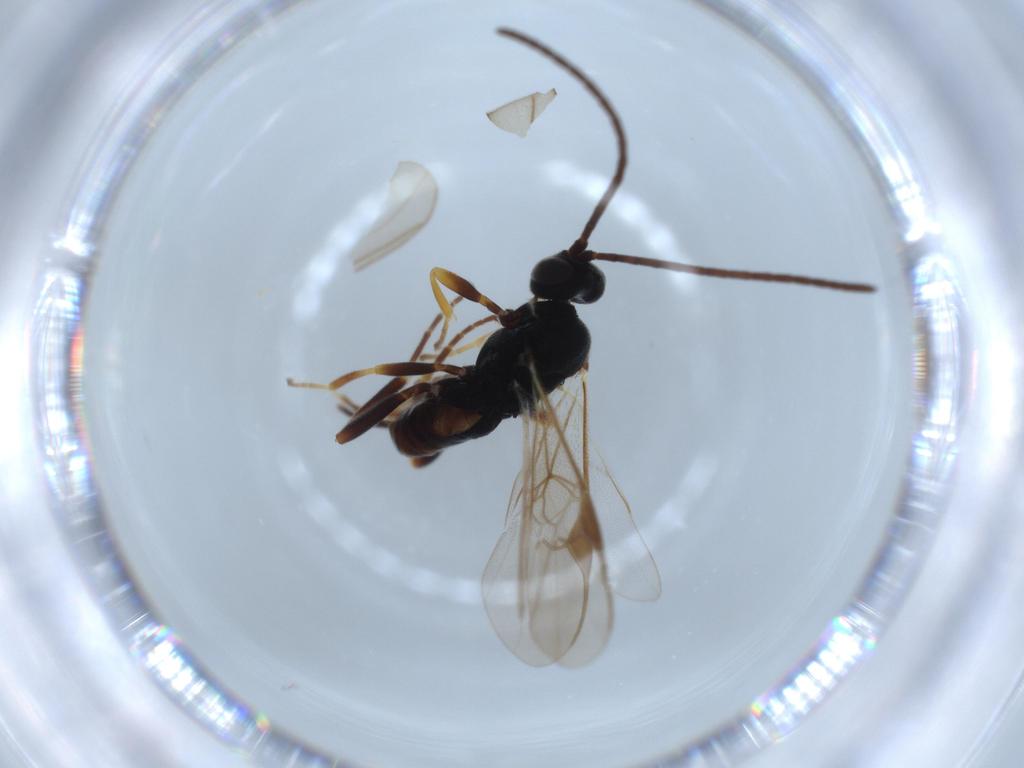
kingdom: Animalia
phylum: Arthropoda
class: Insecta
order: Hymenoptera
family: Braconidae
